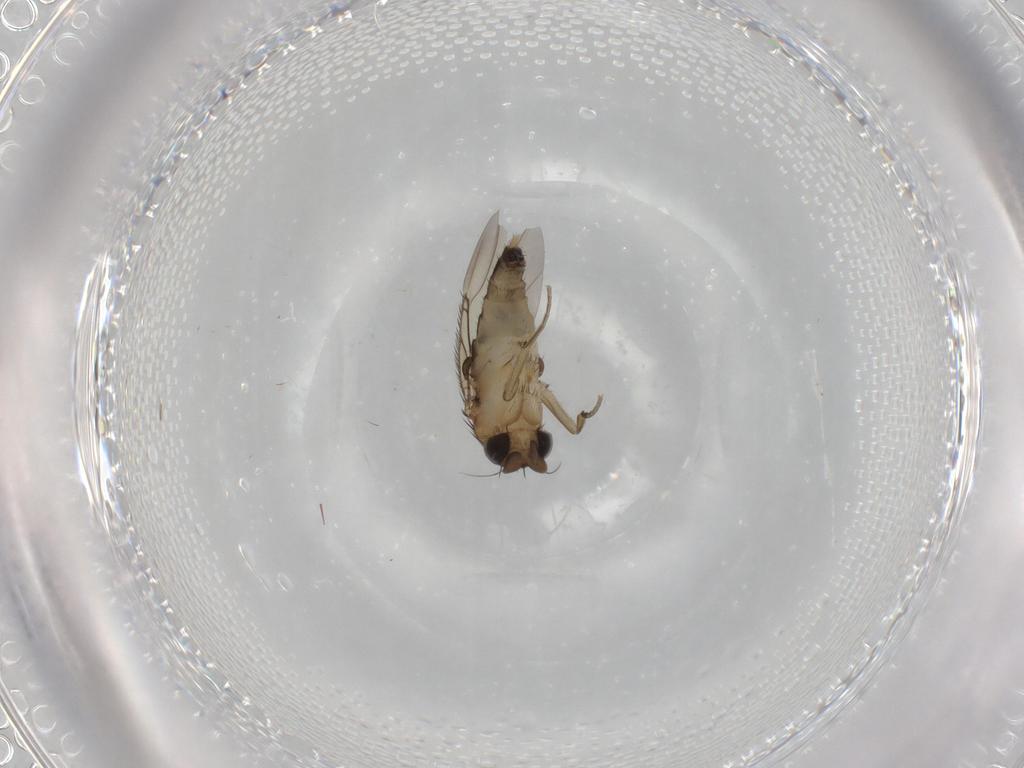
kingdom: Animalia
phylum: Arthropoda
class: Insecta
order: Diptera
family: Phoridae
